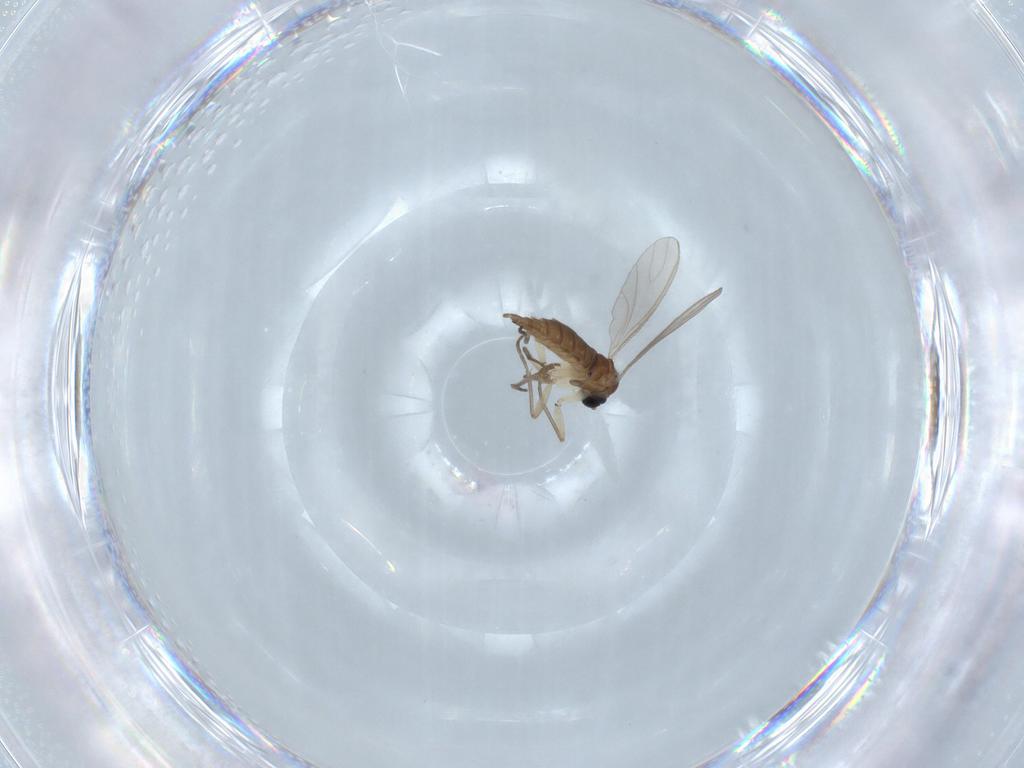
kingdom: Animalia
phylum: Arthropoda
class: Insecta
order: Diptera
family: Sciaridae
